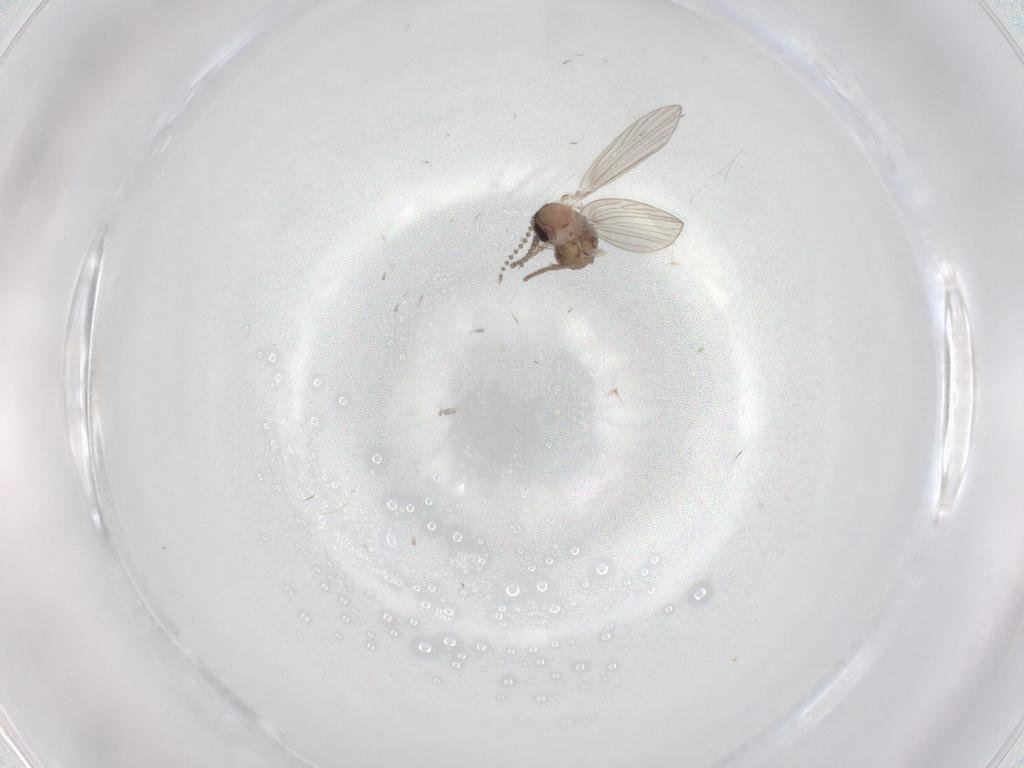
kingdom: Animalia
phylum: Arthropoda
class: Insecta
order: Diptera
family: Psychodidae
